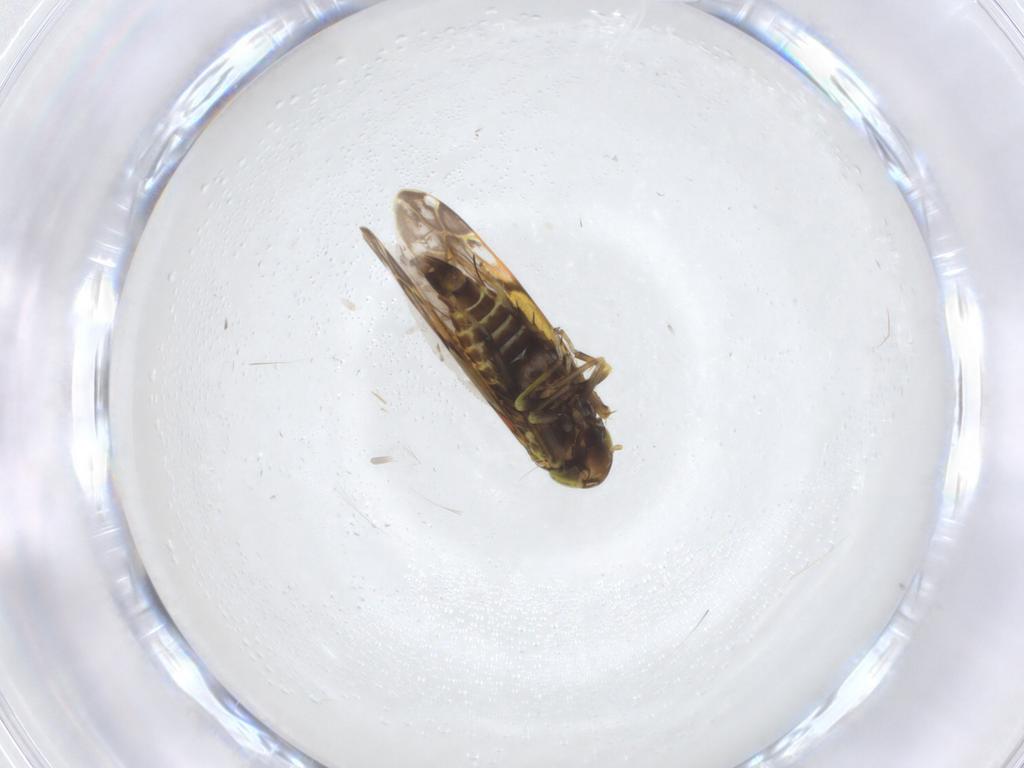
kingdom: Animalia
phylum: Arthropoda
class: Insecta
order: Hemiptera
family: Cicadellidae
